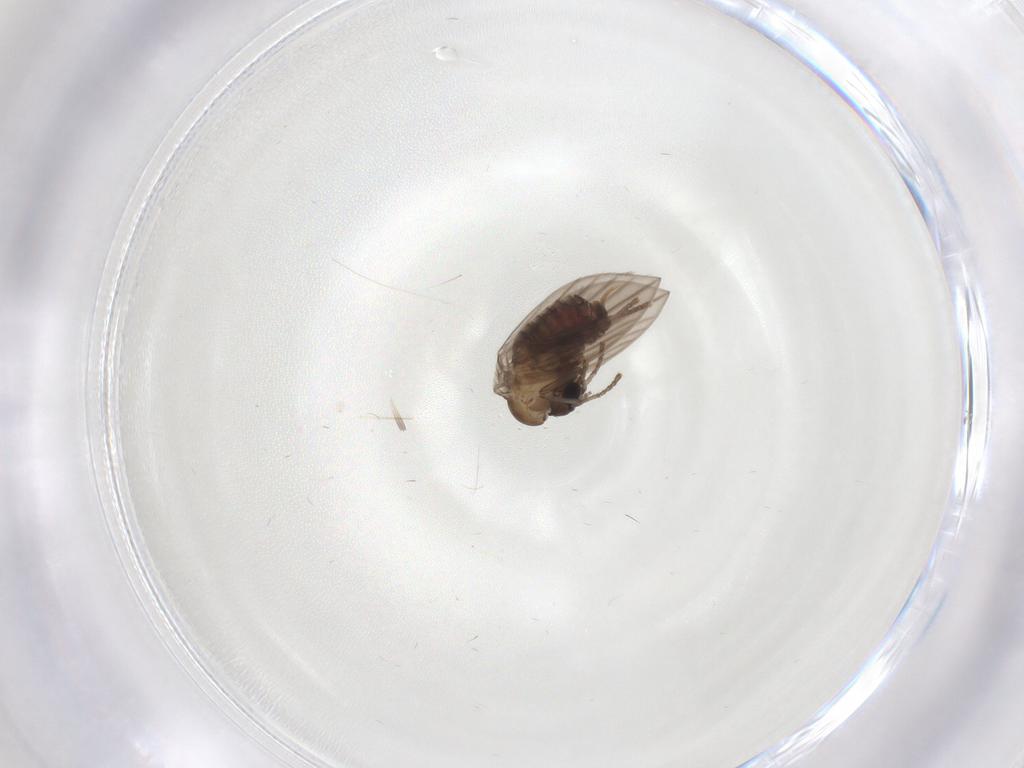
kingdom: Animalia
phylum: Arthropoda
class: Insecta
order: Diptera
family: Psychodidae
